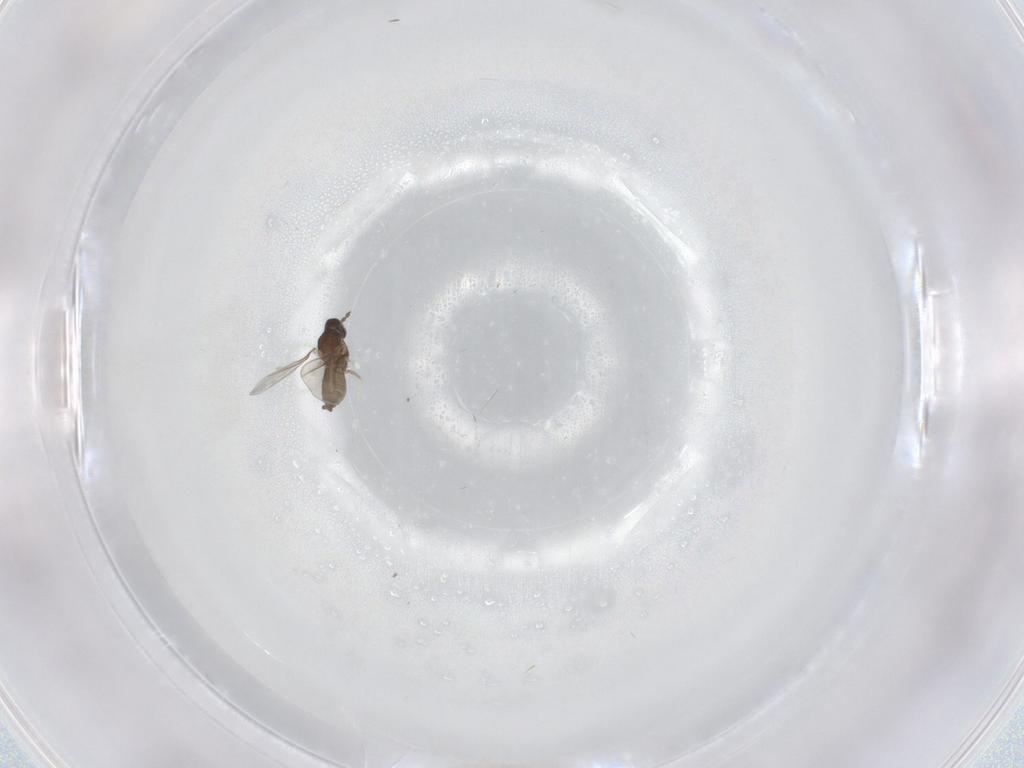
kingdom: Animalia
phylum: Arthropoda
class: Insecta
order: Diptera
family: Cecidomyiidae
